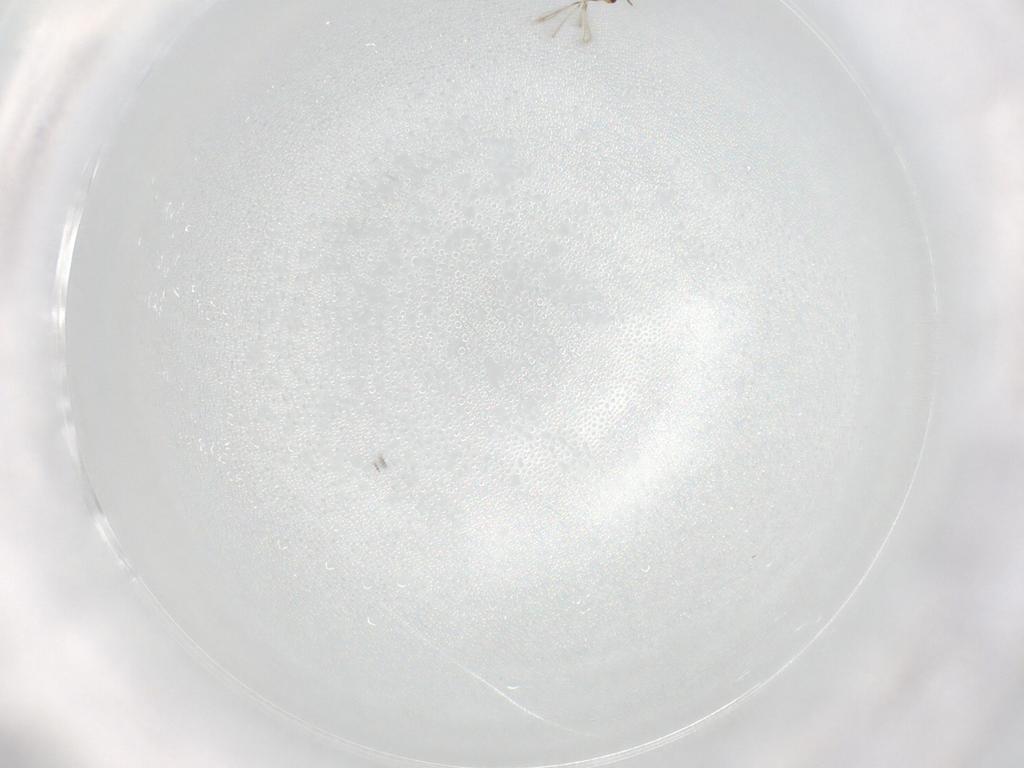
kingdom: Animalia
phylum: Arthropoda
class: Insecta
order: Hymenoptera
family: Mymaridae
